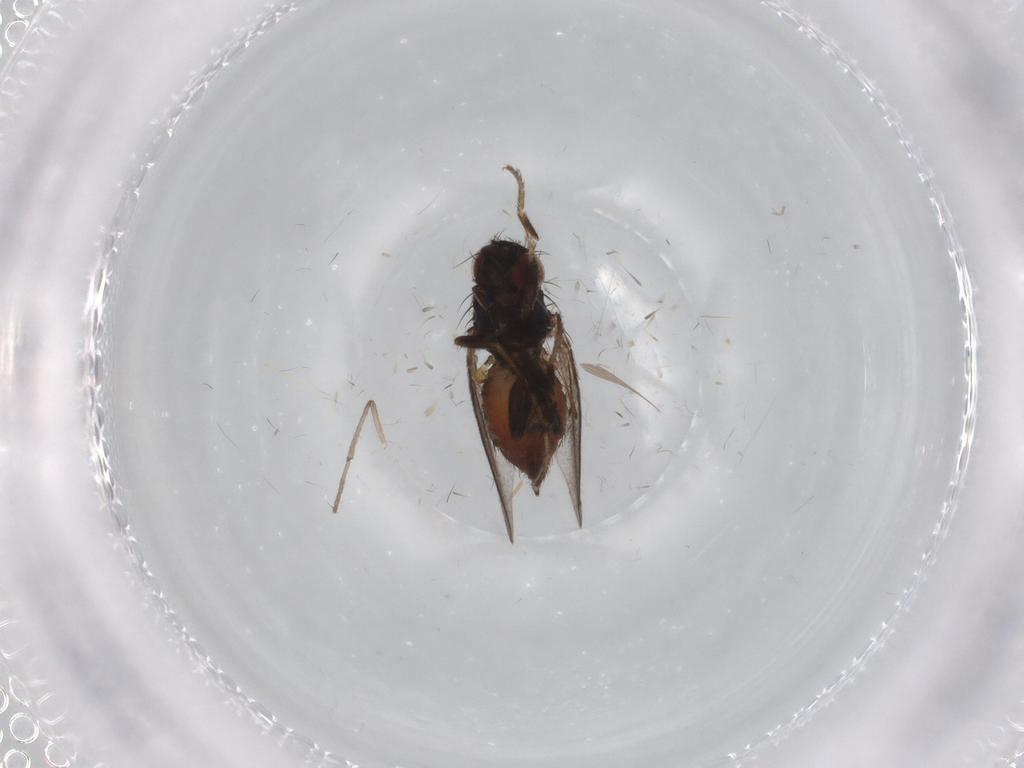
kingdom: Animalia
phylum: Arthropoda
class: Insecta
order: Diptera
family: Milichiidae
